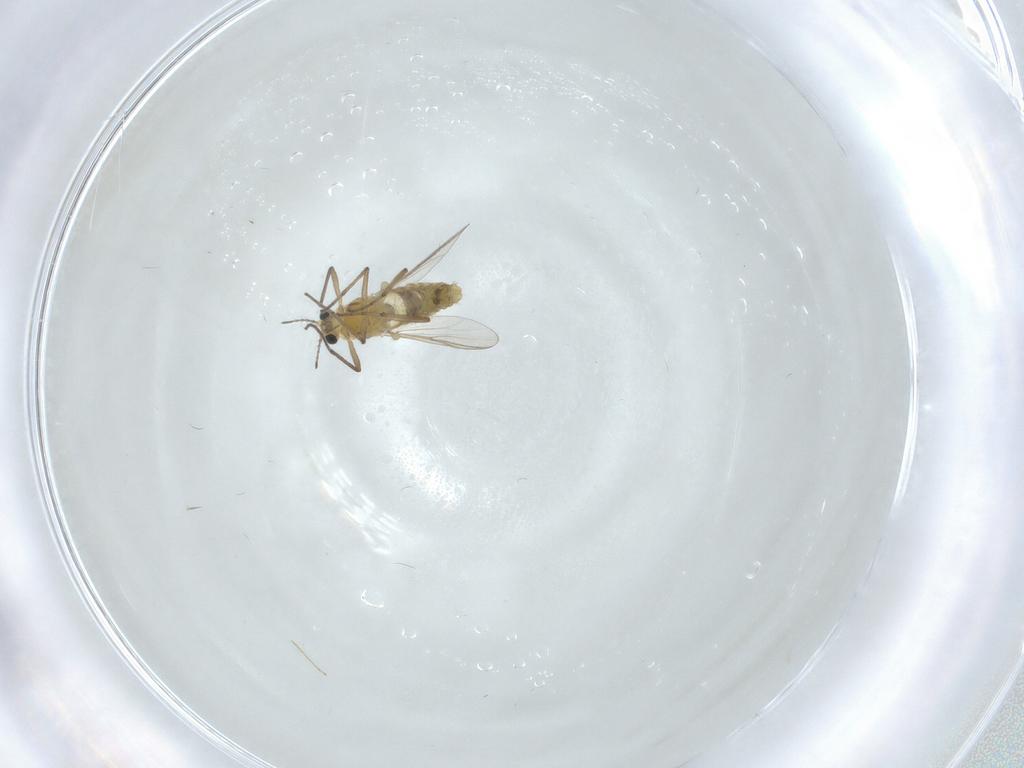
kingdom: Animalia
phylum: Arthropoda
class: Insecta
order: Diptera
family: Chironomidae
